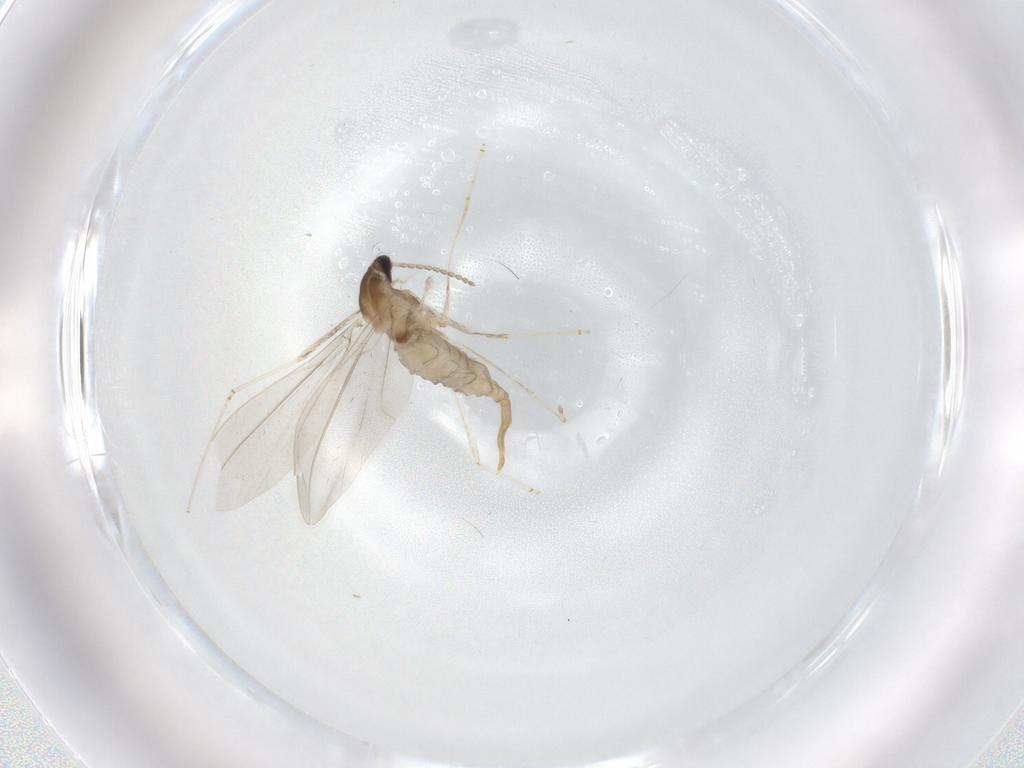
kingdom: Animalia
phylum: Arthropoda
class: Insecta
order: Diptera
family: Cecidomyiidae
